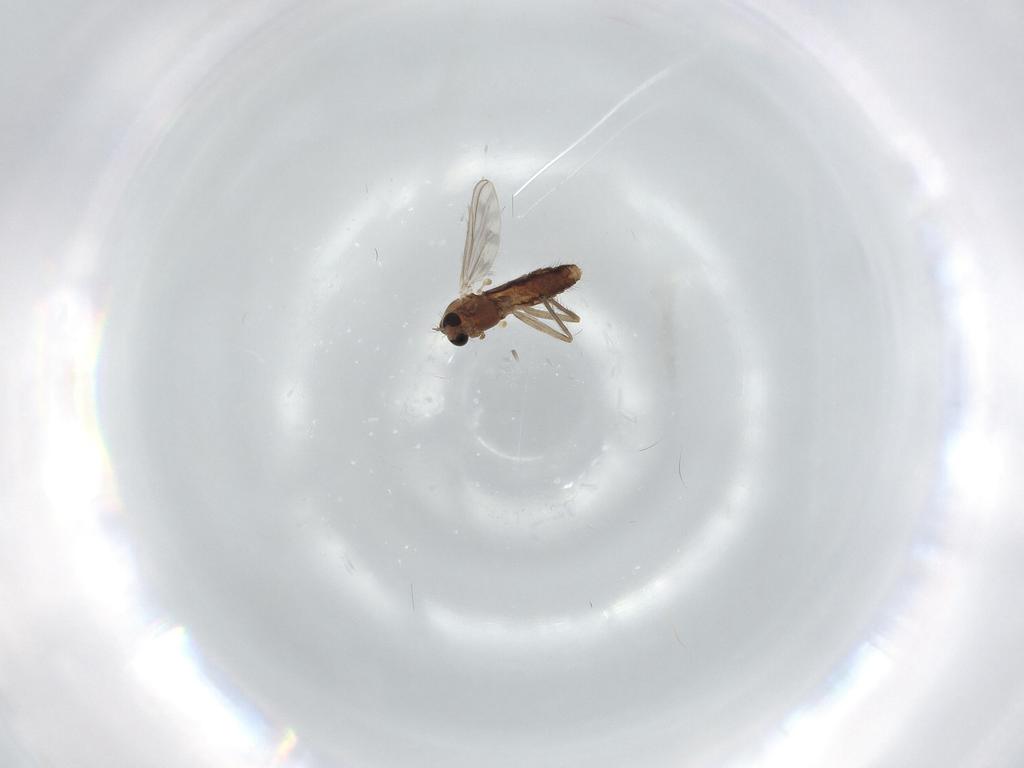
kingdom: Animalia
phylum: Arthropoda
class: Insecta
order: Diptera
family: Chironomidae
